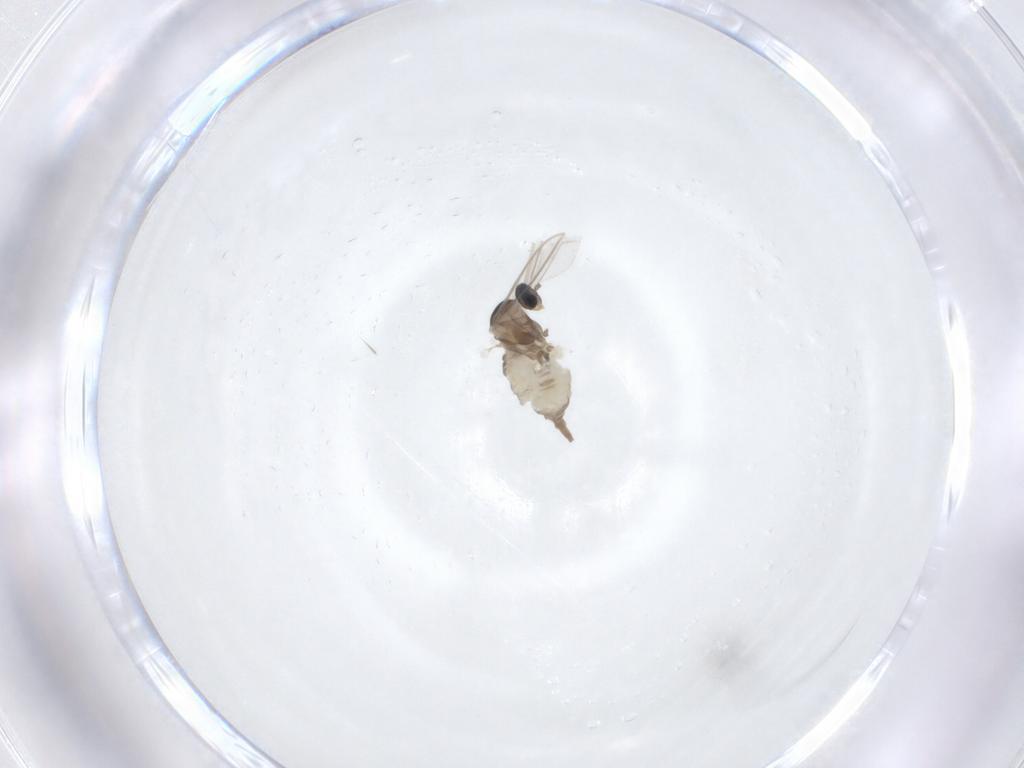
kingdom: Animalia
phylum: Arthropoda
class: Insecta
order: Diptera
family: Cecidomyiidae
